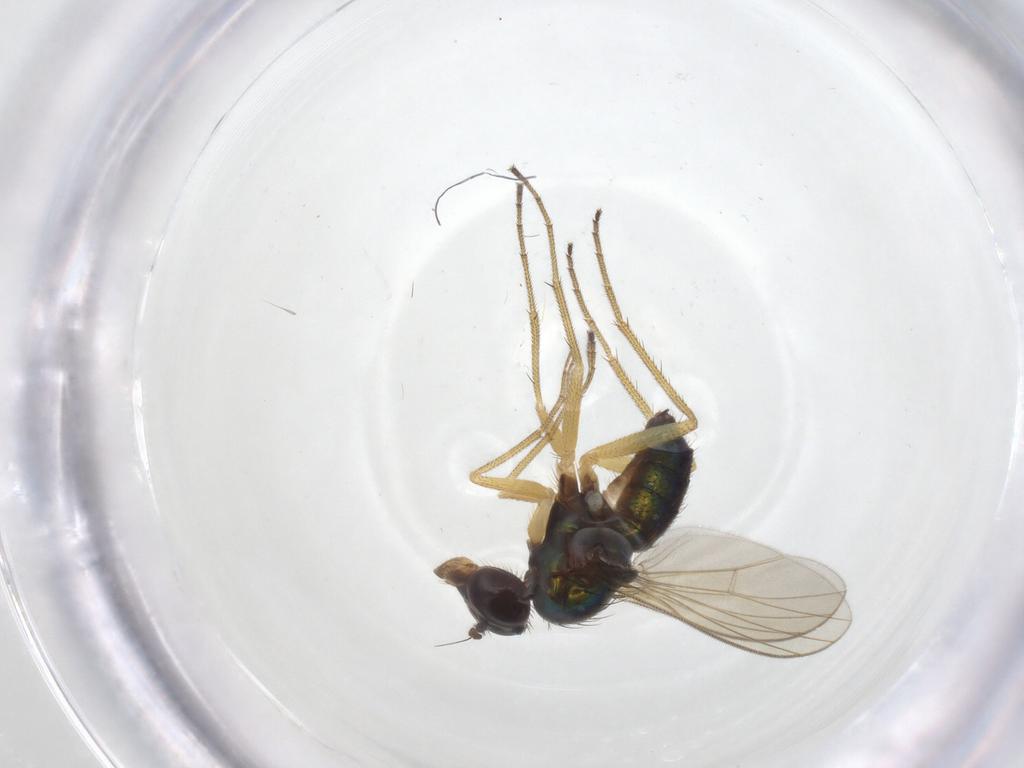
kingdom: Animalia
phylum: Arthropoda
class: Insecta
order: Diptera
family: Dolichopodidae
